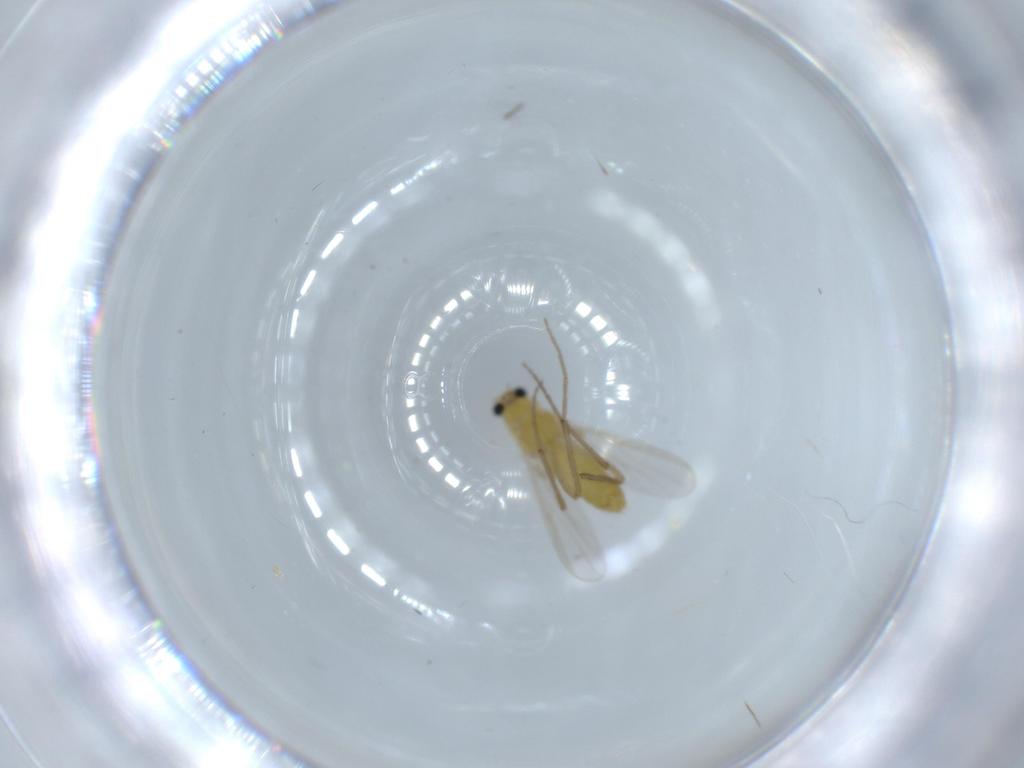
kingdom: Animalia
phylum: Arthropoda
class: Insecta
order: Diptera
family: Chironomidae
